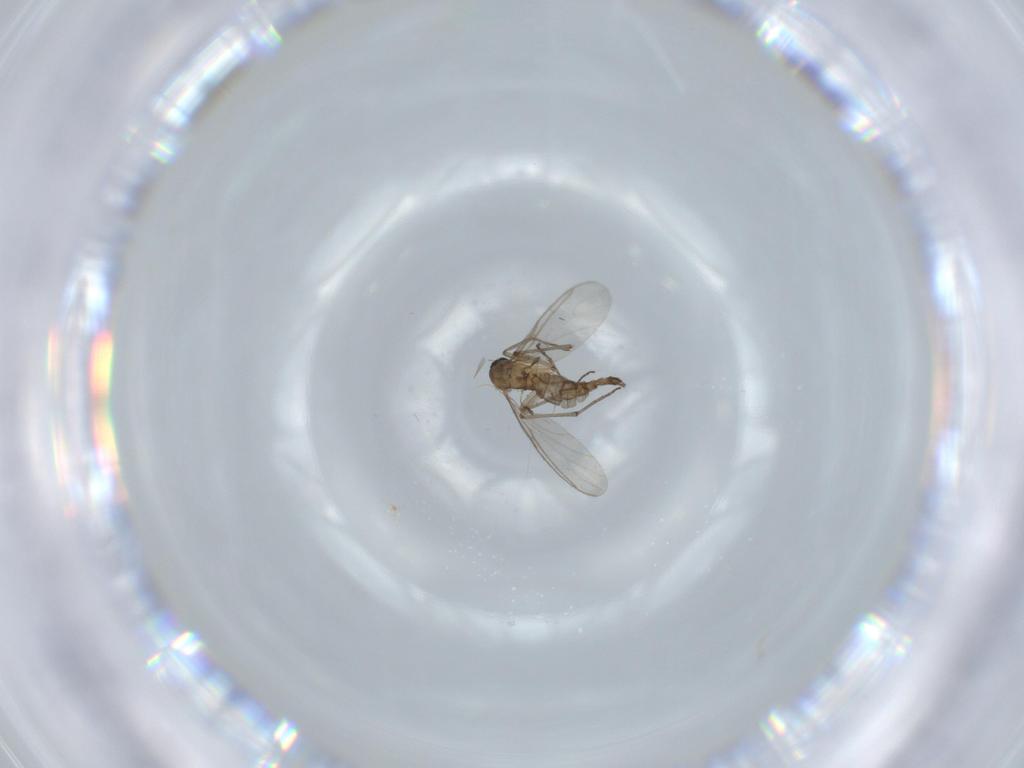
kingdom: Animalia
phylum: Arthropoda
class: Insecta
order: Diptera
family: Sciaridae
